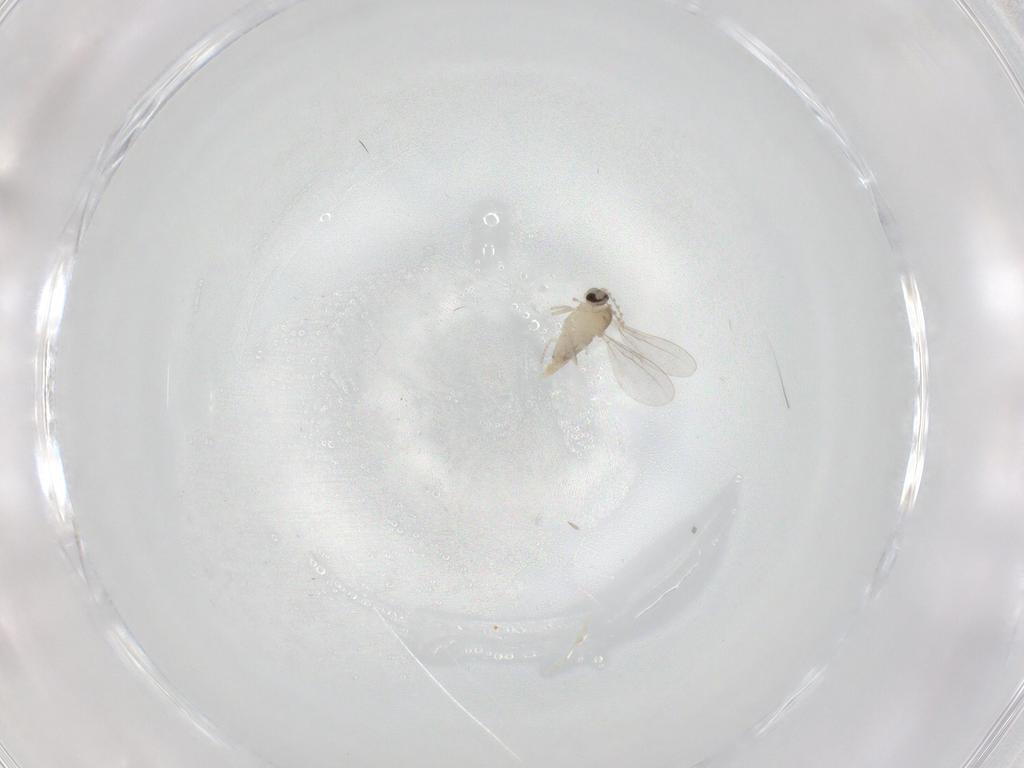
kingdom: Animalia
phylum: Arthropoda
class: Insecta
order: Diptera
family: Cecidomyiidae
